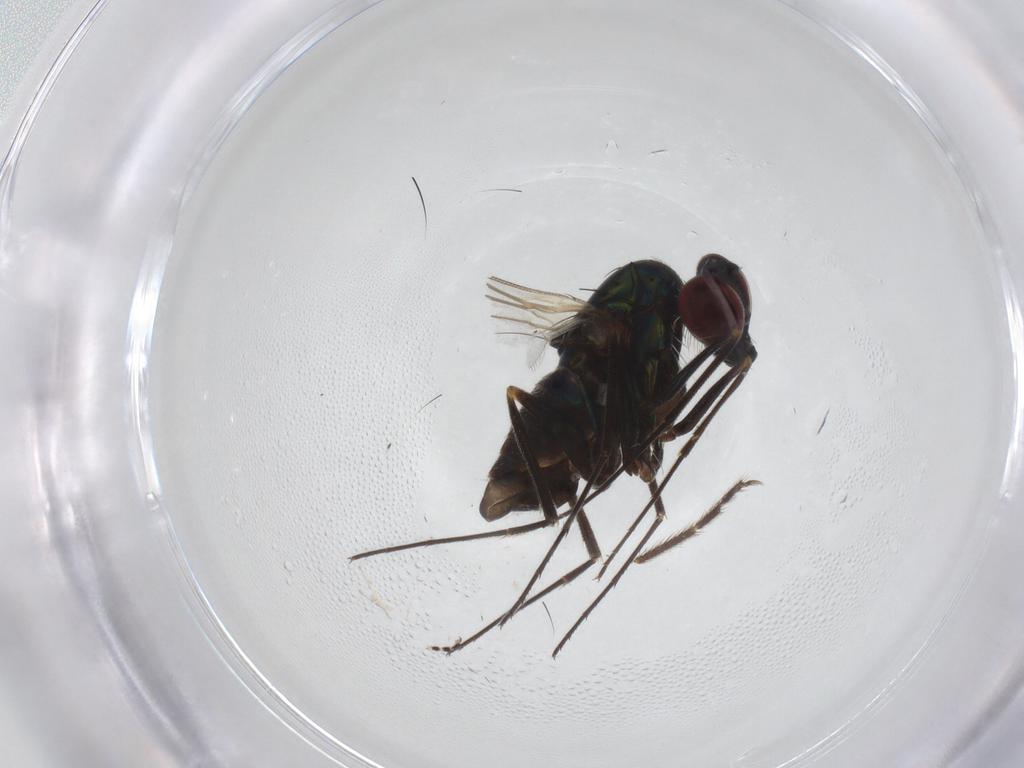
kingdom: Animalia
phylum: Arthropoda
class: Insecta
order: Diptera
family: Dolichopodidae
